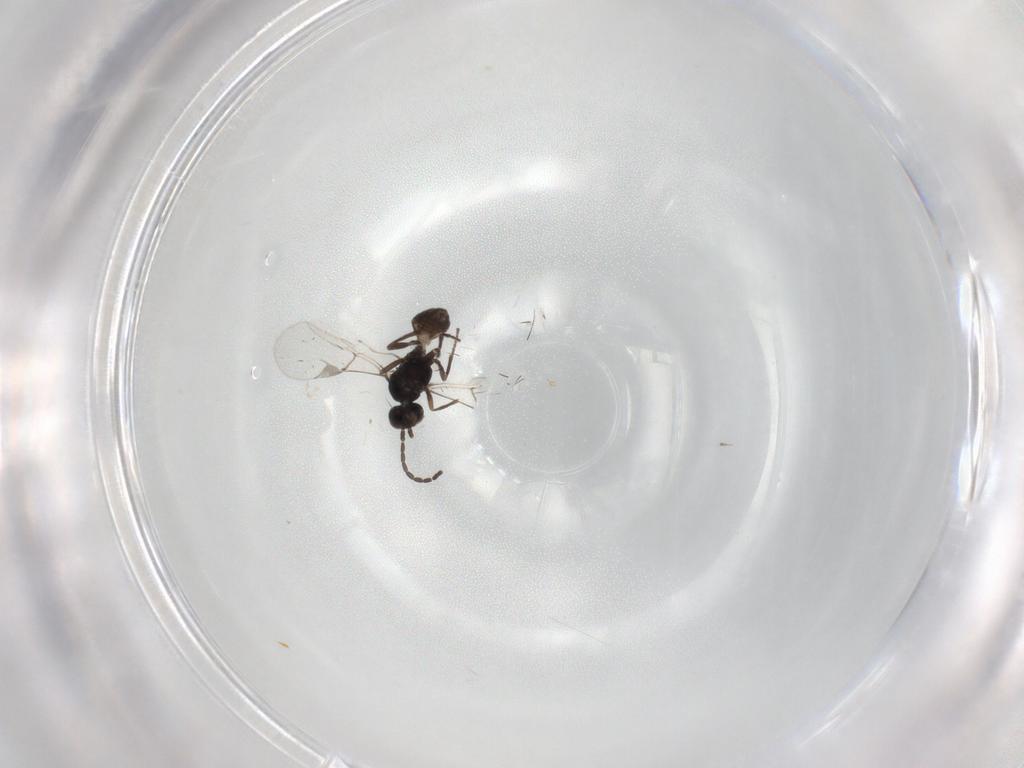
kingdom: Animalia
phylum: Arthropoda
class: Insecta
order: Hymenoptera
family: Braconidae
